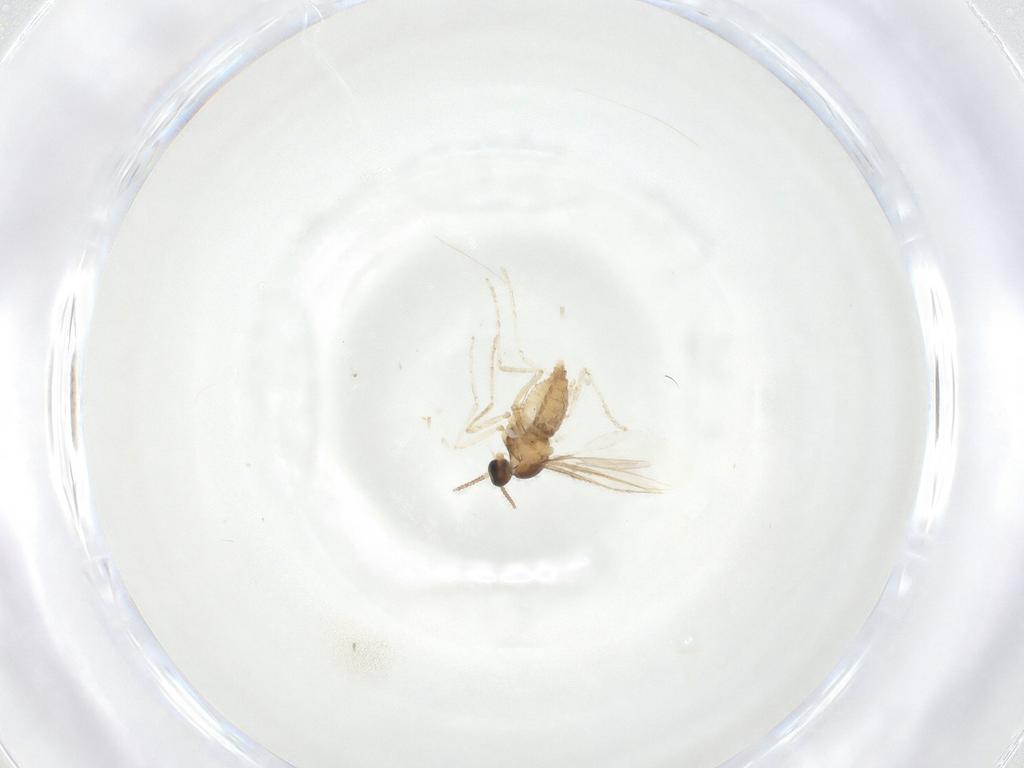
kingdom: Animalia
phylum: Arthropoda
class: Insecta
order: Diptera
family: Cecidomyiidae
